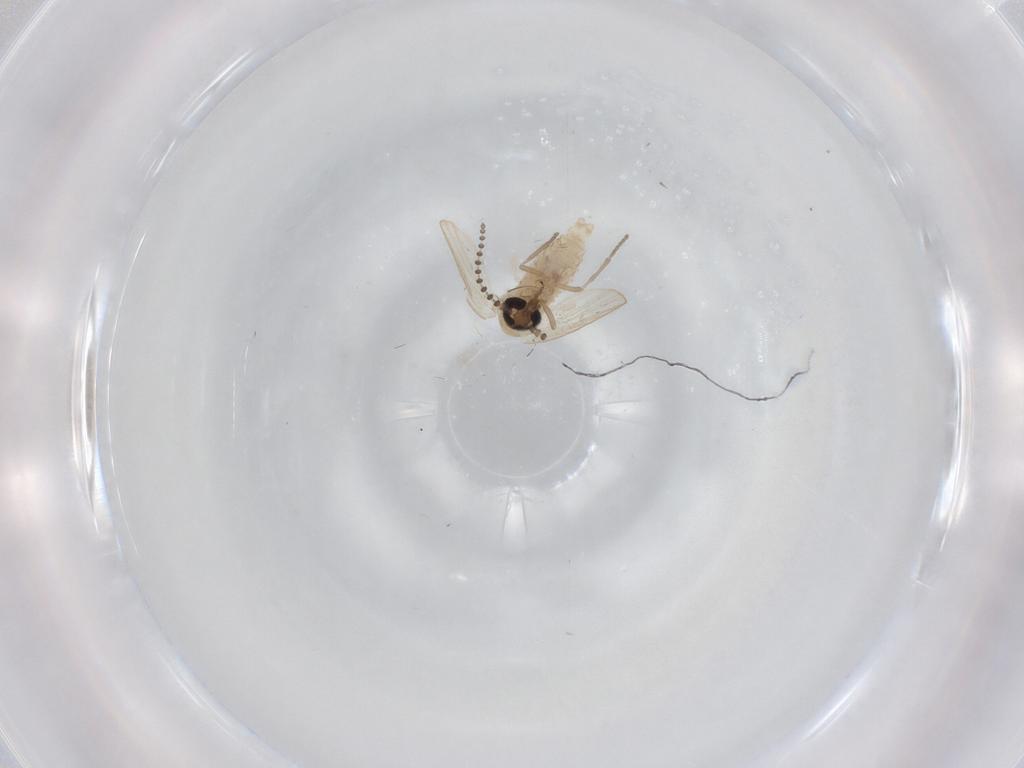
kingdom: Animalia
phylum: Arthropoda
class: Insecta
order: Diptera
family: Psychodidae
